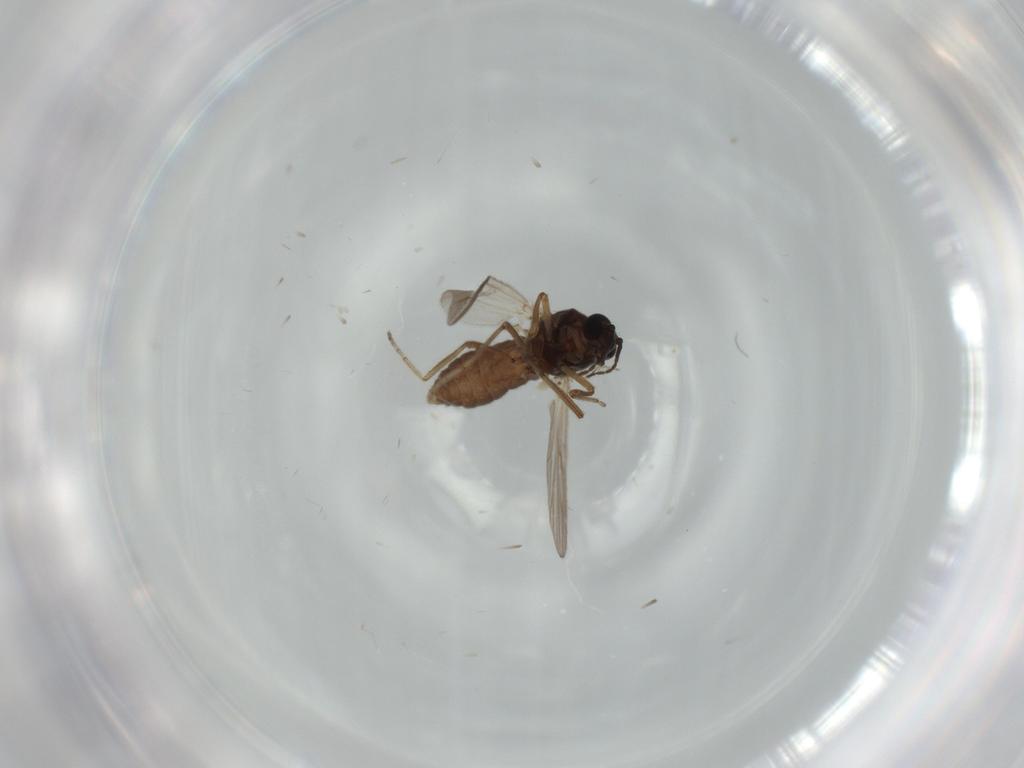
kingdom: Animalia
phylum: Arthropoda
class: Insecta
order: Diptera
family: Ceratopogonidae
